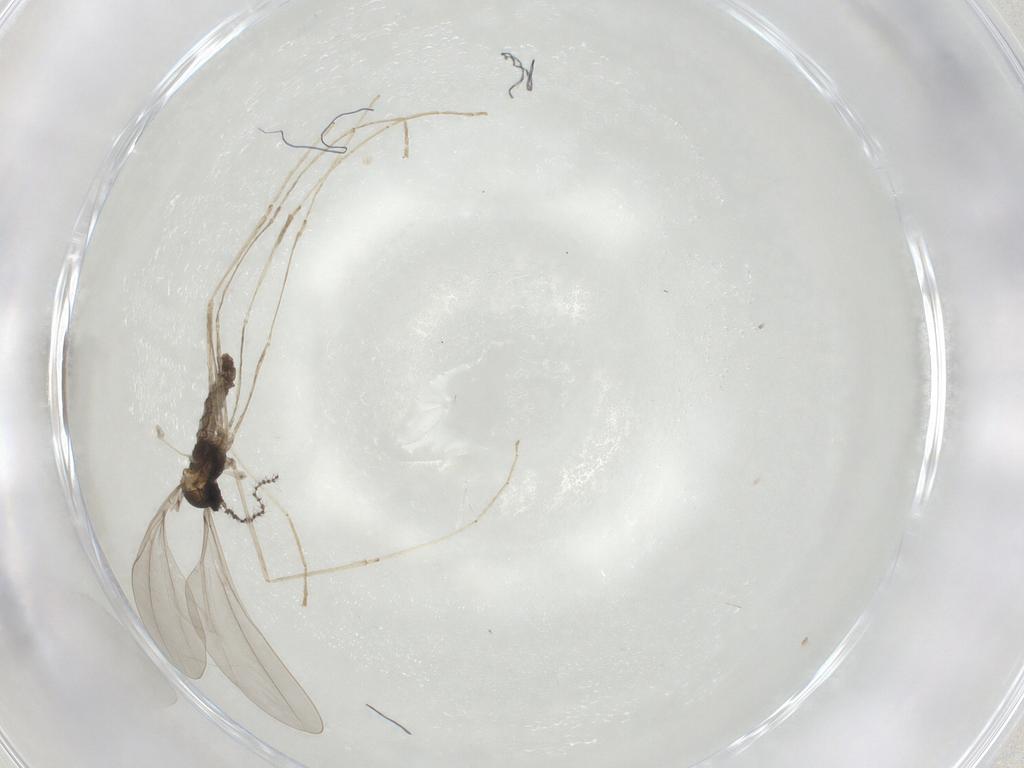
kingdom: Animalia
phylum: Arthropoda
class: Insecta
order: Diptera
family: Cecidomyiidae
